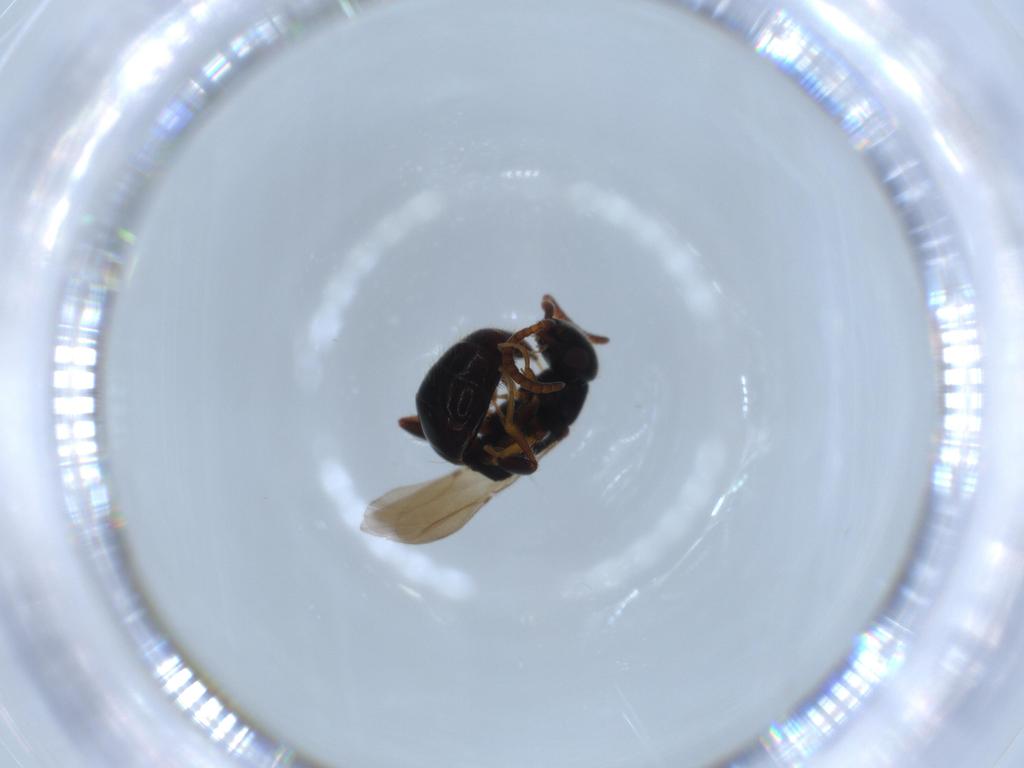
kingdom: Animalia
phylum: Arthropoda
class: Insecta
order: Hymenoptera
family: Bethylidae
